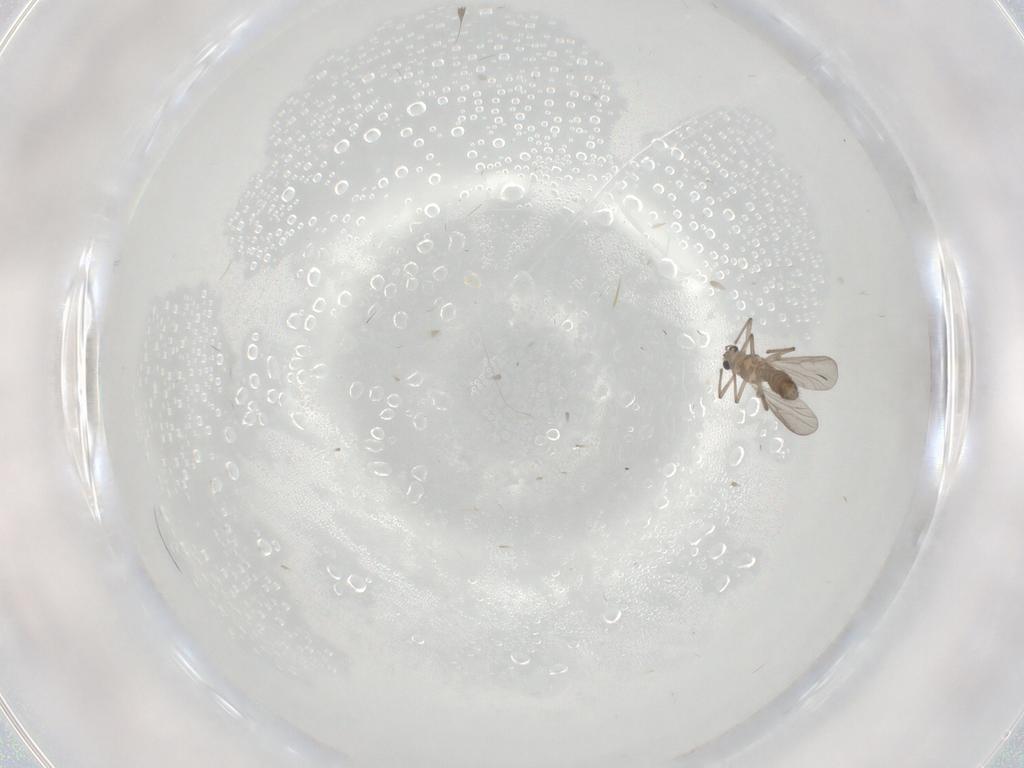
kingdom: Animalia
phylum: Arthropoda
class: Insecta
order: Diptera
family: Chironomidae
